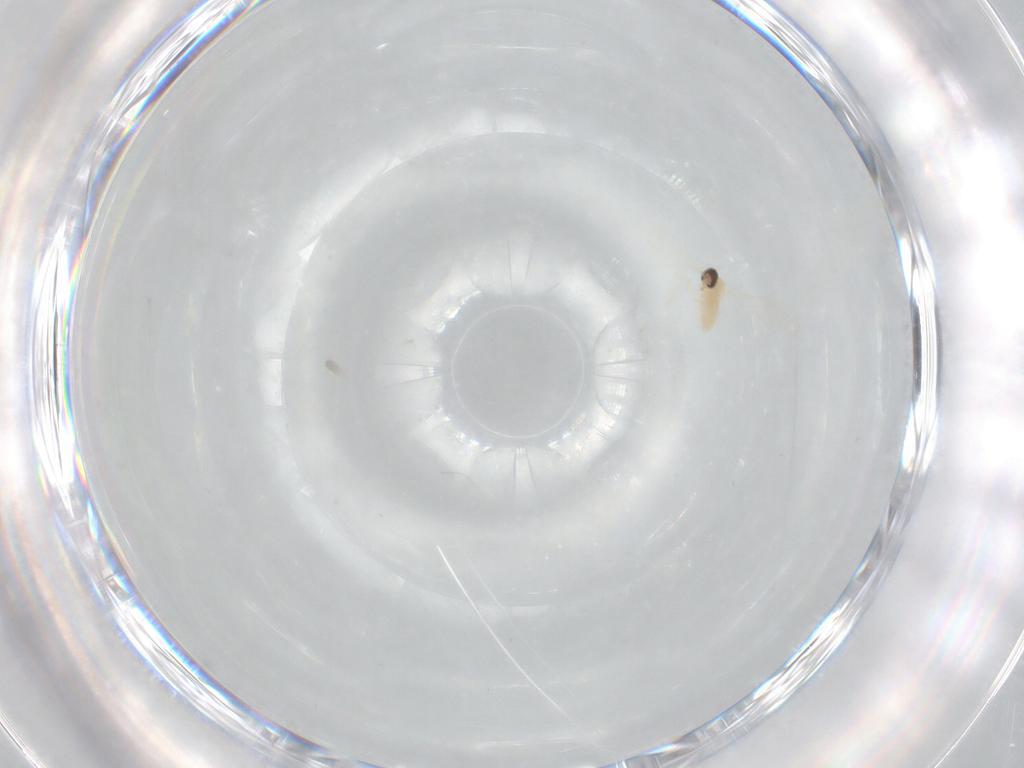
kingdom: Animalia
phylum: Arthropoda
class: Insecta
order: Diptera
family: Cecidomyiidae
